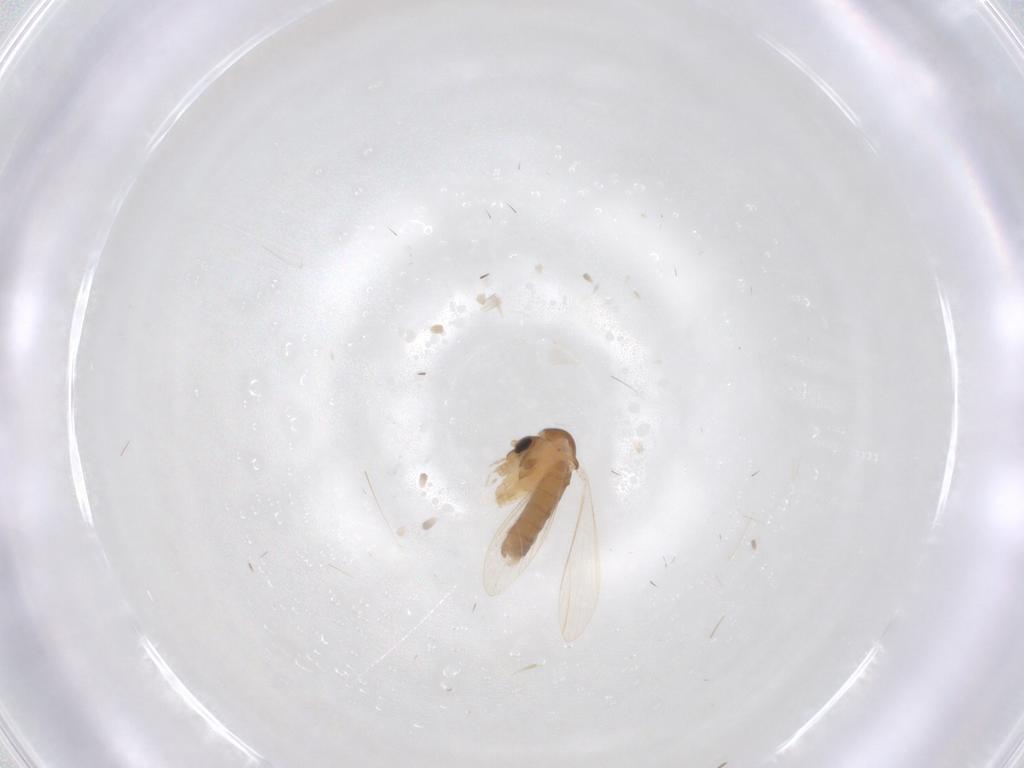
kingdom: Animalia
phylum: Arthropoda
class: Insecta
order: Diptera
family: Psychodidae
